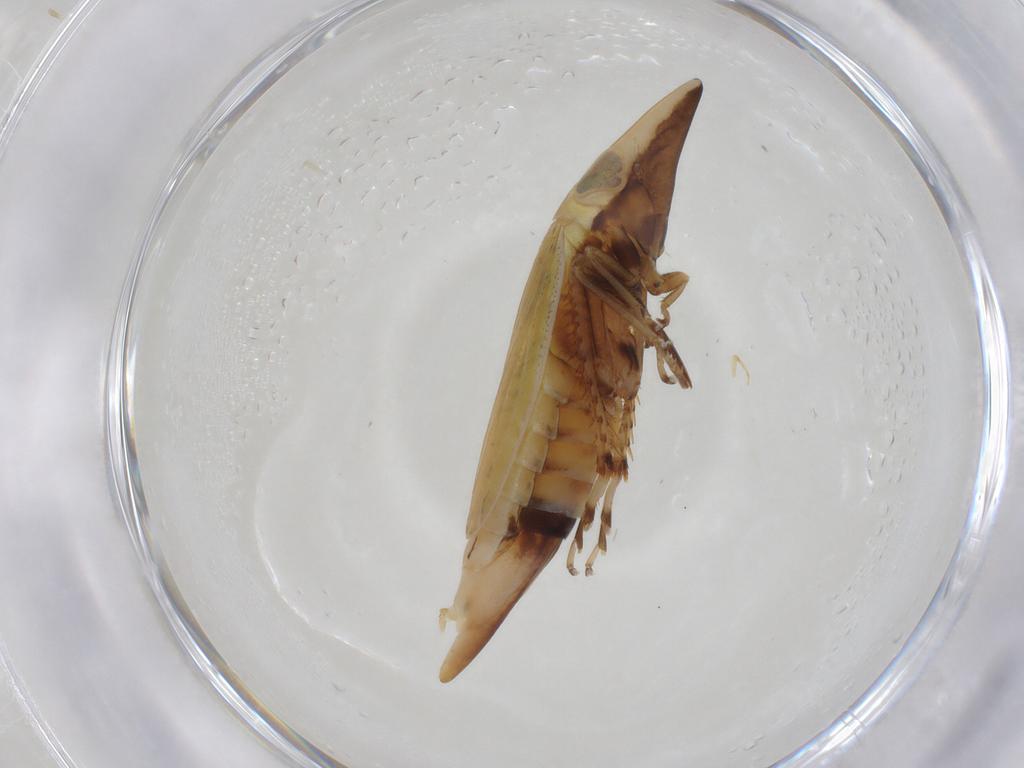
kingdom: Animalia
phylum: Arthropoda
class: Insecta
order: Hemiptera
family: Cicadellidae
